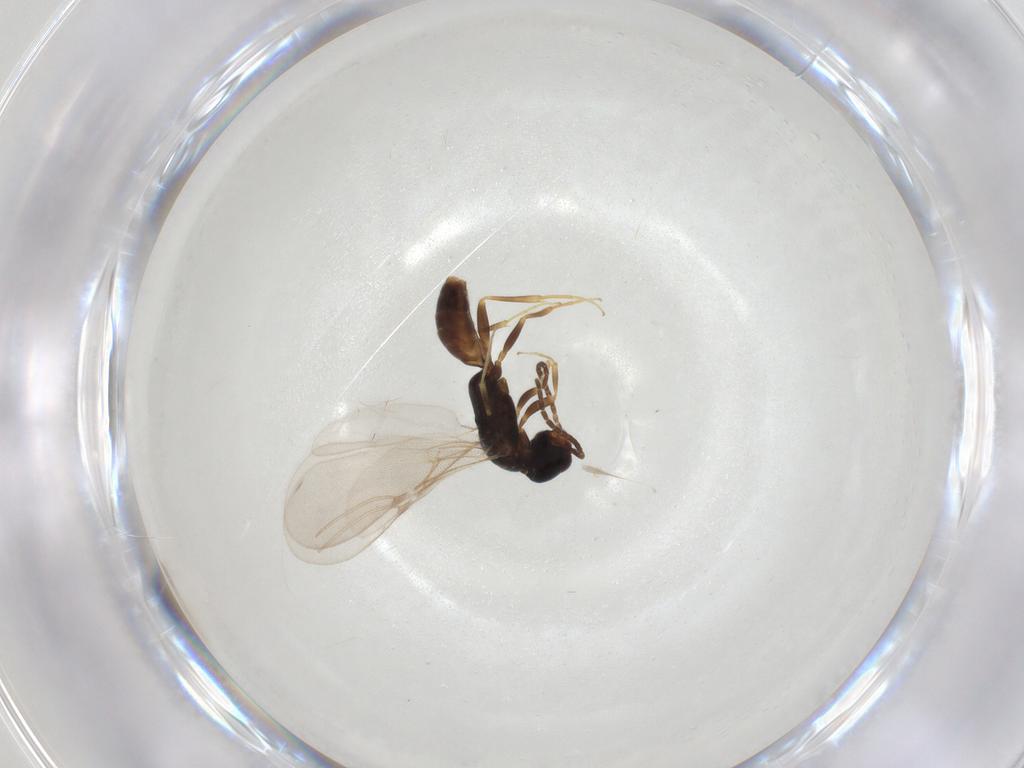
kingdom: Animalia
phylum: Arthropoda
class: Insecta
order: Hymenoptera
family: Bethylidae
